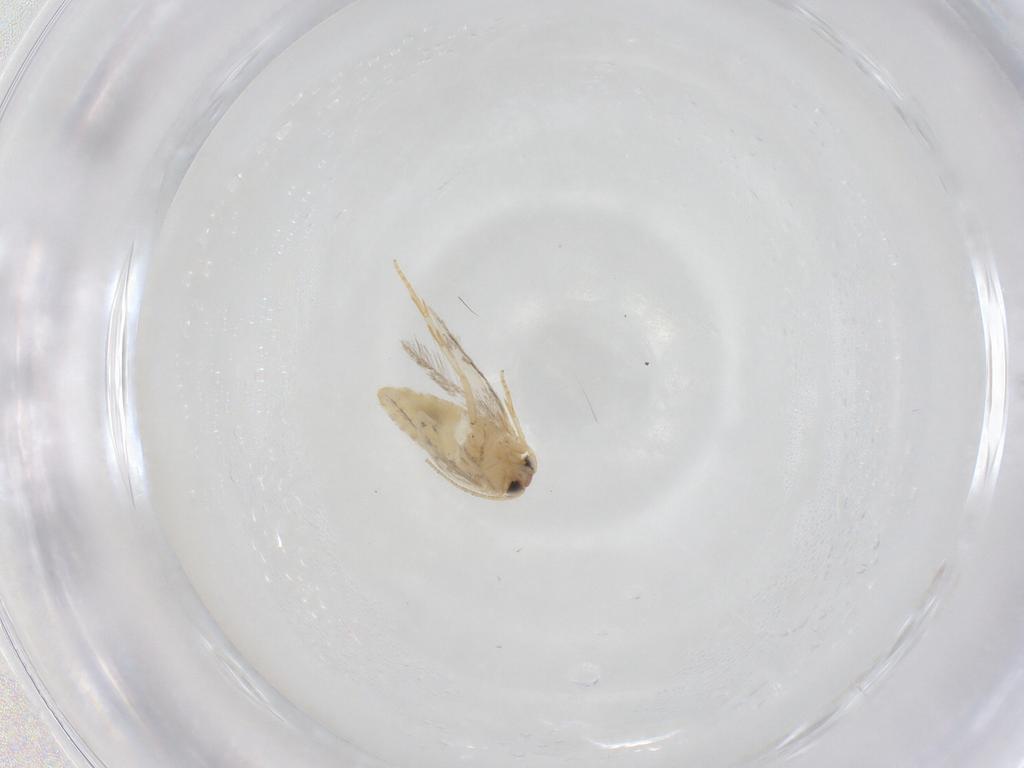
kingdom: Animalia
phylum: Arthropoda
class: Insecta
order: Lepidoptera
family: Nepticulidae
